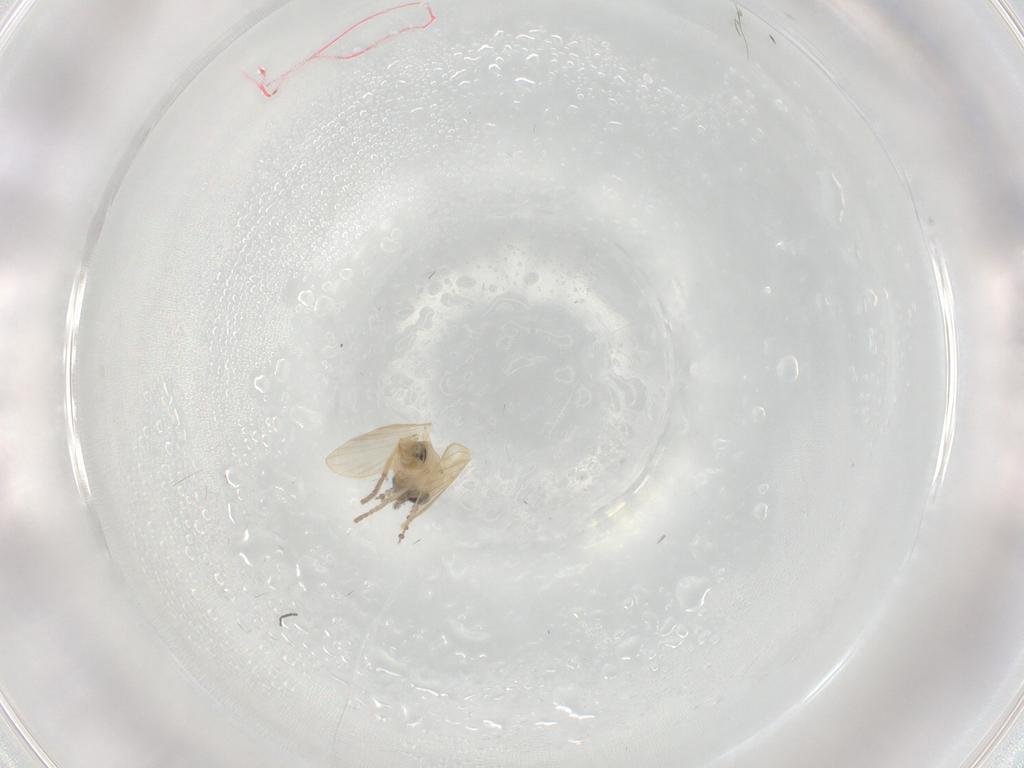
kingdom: Animalia
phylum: Arthropoda
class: Insecta
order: Diptera
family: Psychodidae
